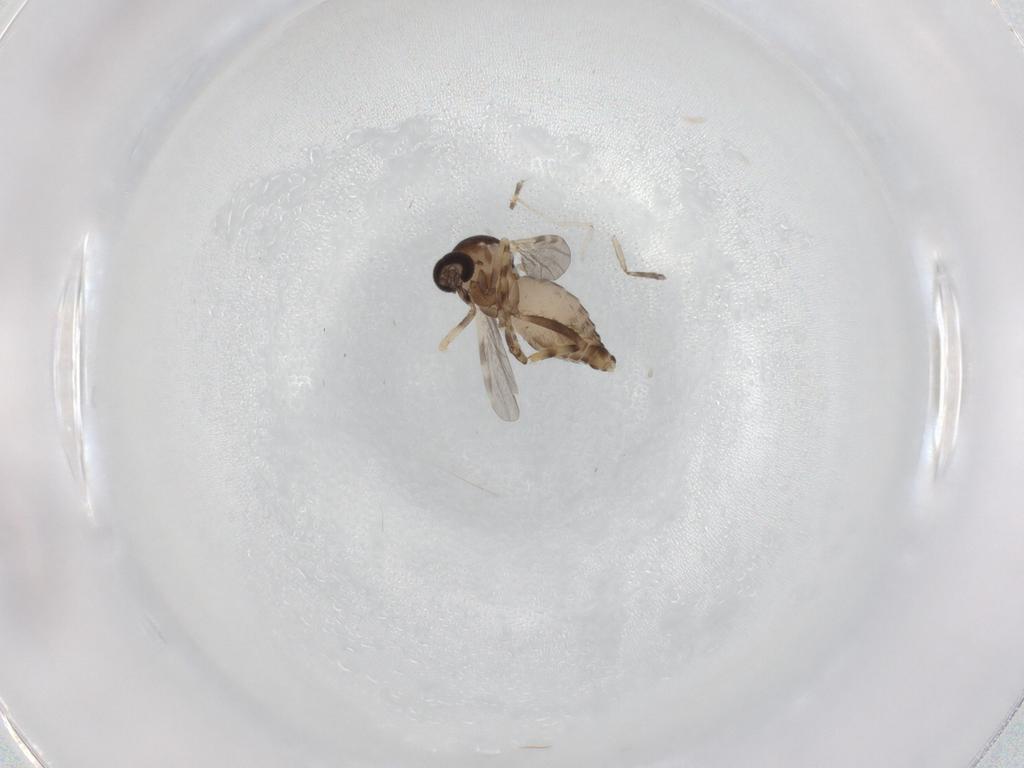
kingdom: Animalia
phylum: Arthropoda
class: Insecta
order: Diptera
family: Ceratopogonidae
